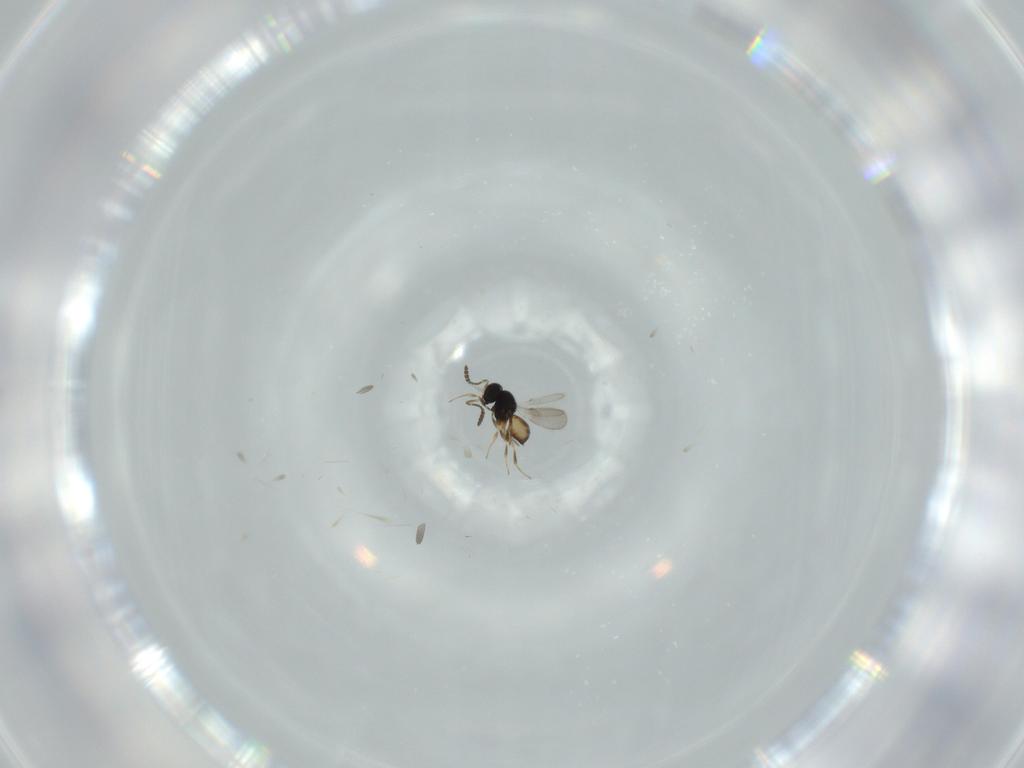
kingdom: Animalia
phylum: Arthropoda
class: Insecta
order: Hymenoptera
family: Scelionidae
